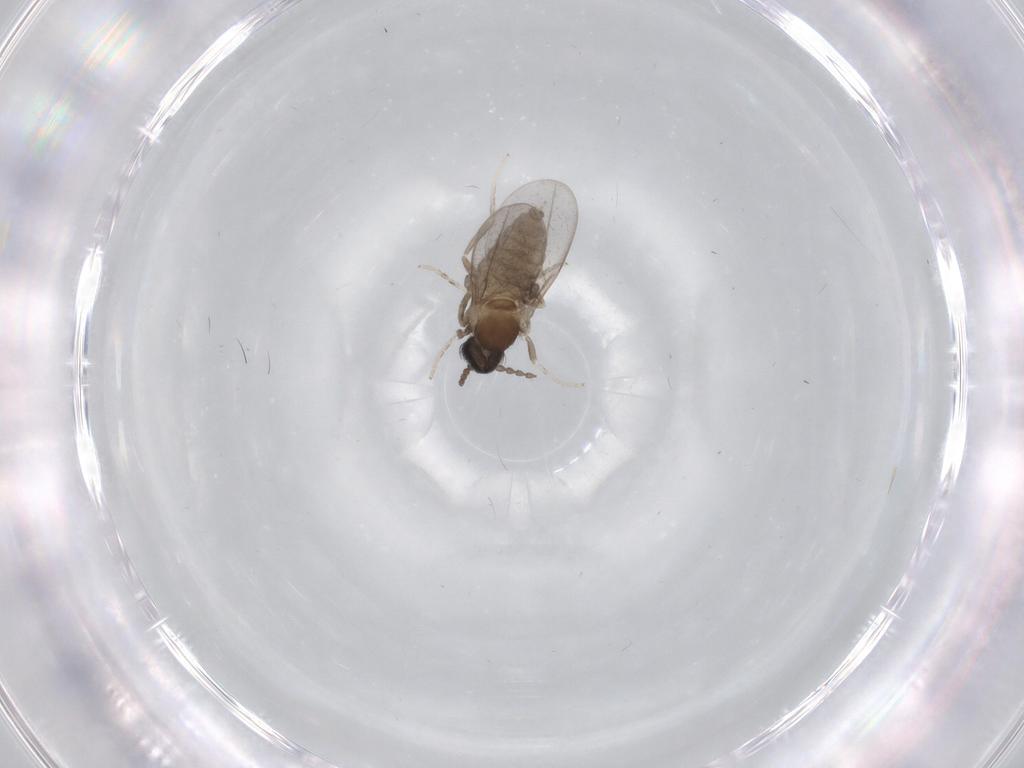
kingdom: Animalia
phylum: Arthropoda
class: Insecta
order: Diptera
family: Cecidomyiidae
